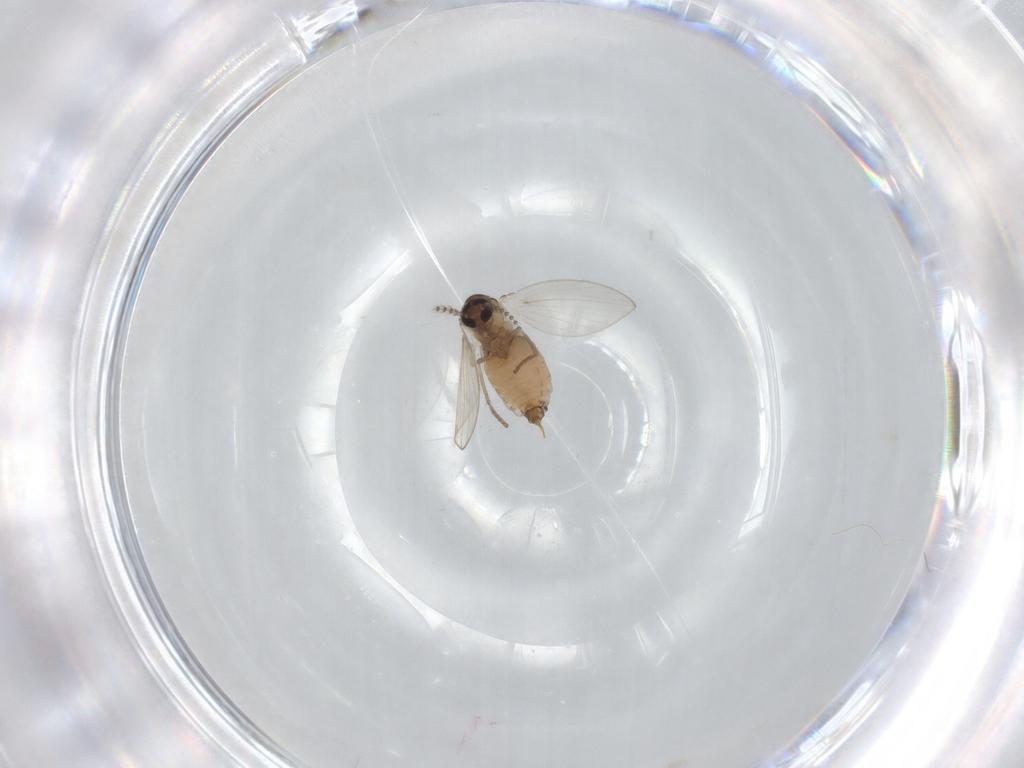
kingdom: Animalia
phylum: Arthropoda
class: Insecta
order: Diptera
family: Psychodidae
